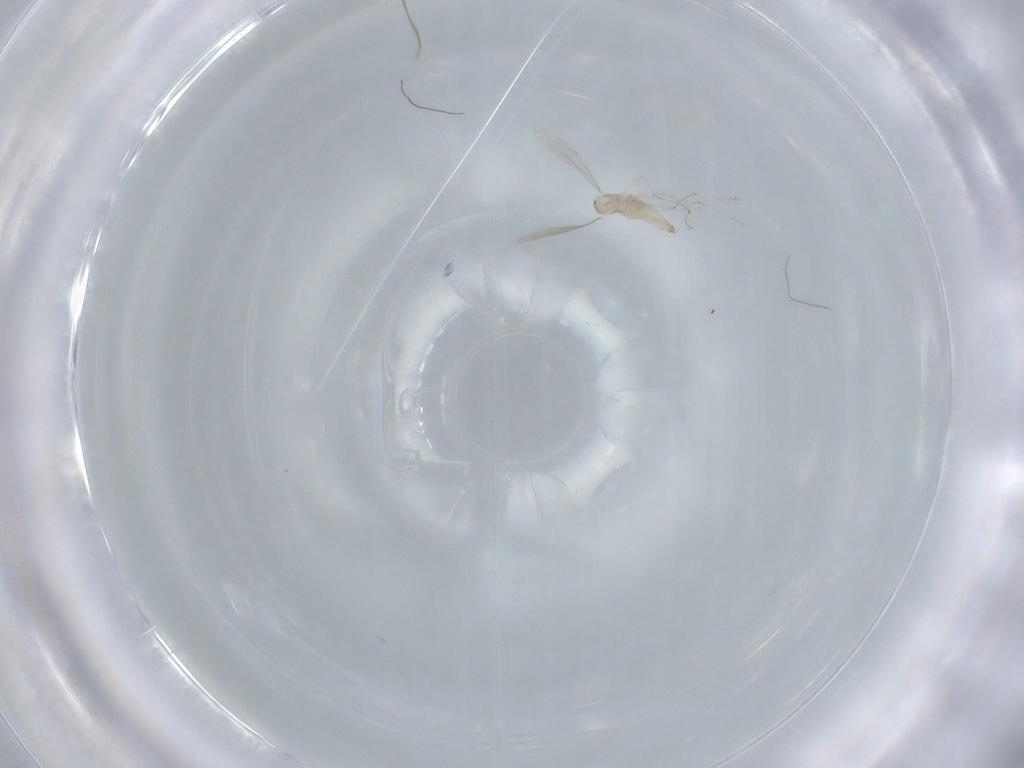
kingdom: Animalia
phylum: Arthropoda
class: Insecta
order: Diptera
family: Cecidomyiidae
